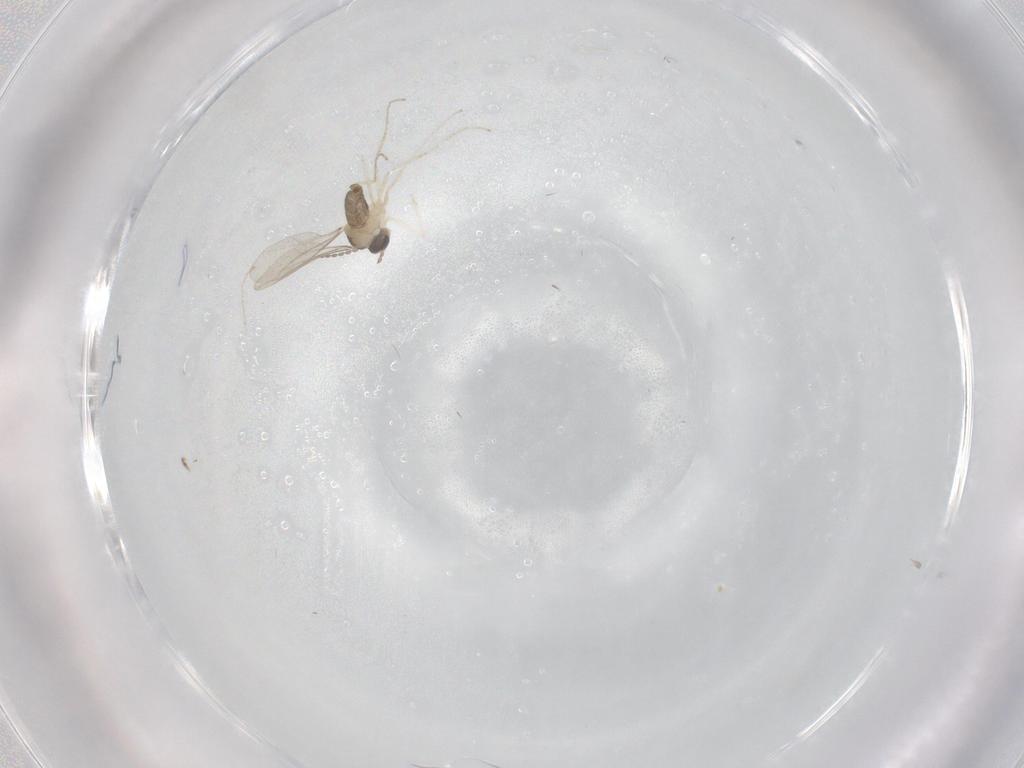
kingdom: Animalia
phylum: Arthropoda
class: Insecta
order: Diptera
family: Cecidomyiidae
